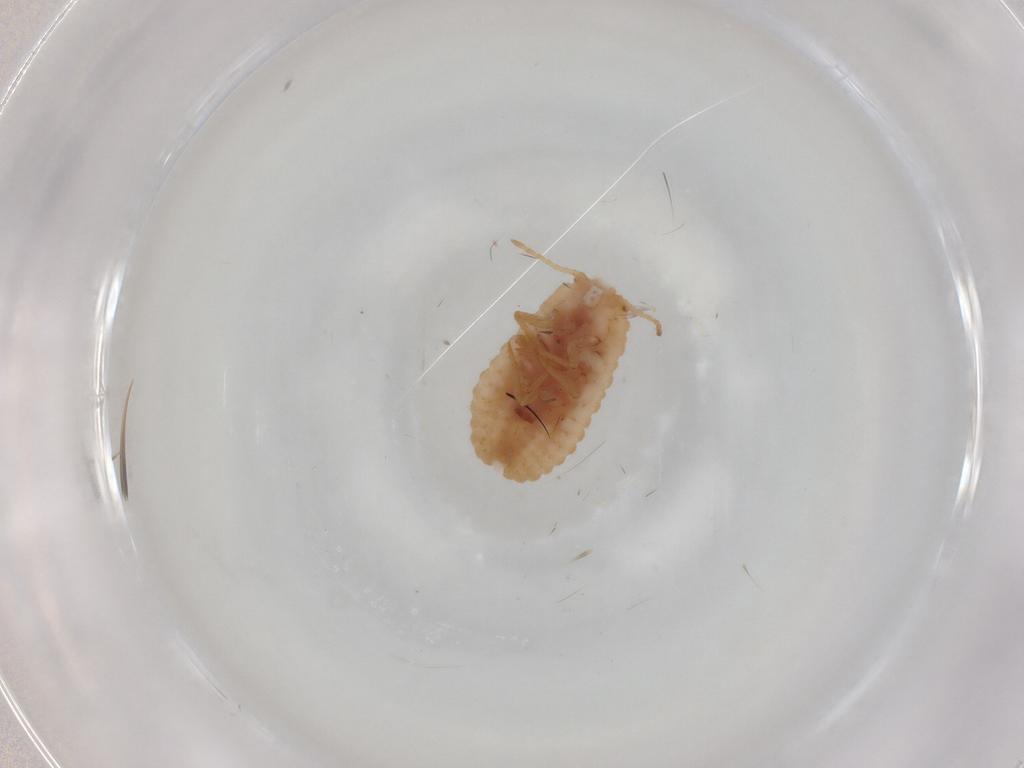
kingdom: Animalia
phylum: Arthropoda
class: Insecta
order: Hemiptera
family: Coccoidea_incertae_sedis
